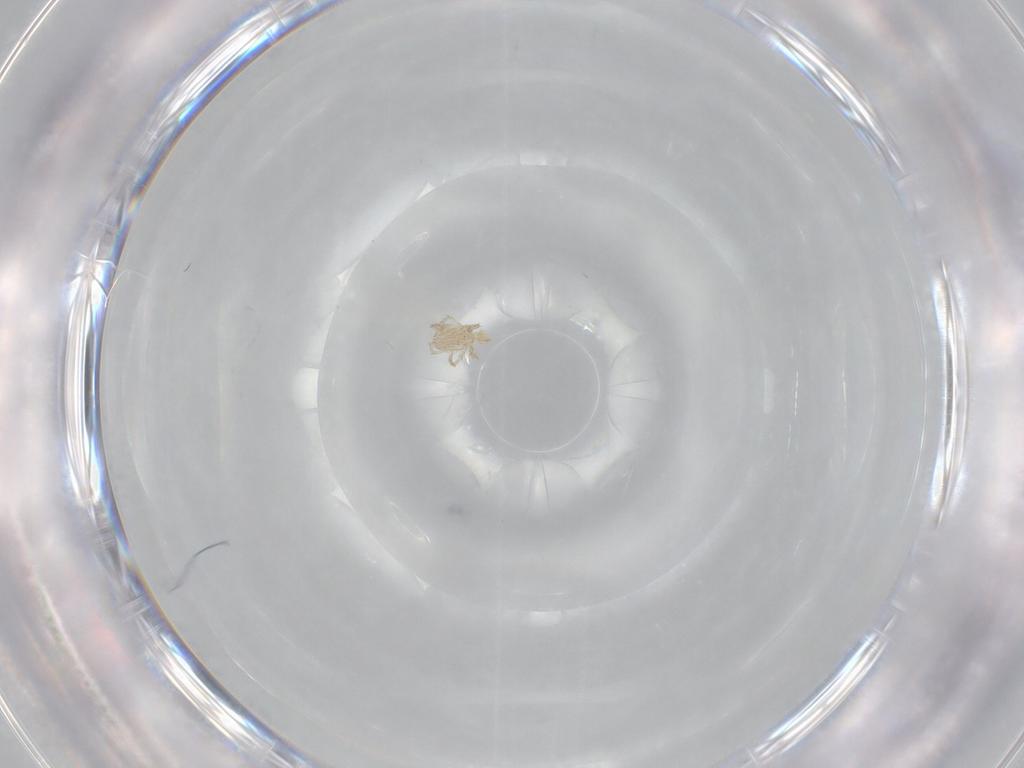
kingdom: Animalia
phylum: Arthropoda
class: Arachnida
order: Trombidiformes
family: Erythraeidae
